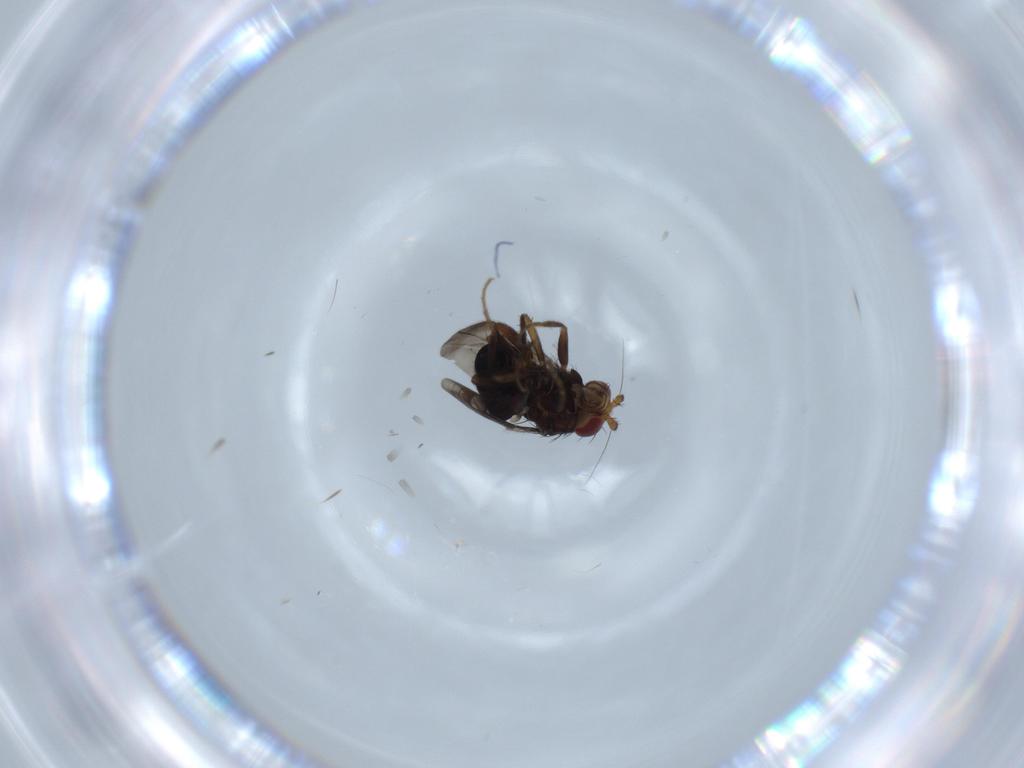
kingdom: Animalia
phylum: Arthropoda
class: Insecta
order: Diptera
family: Sphaeroceridae
